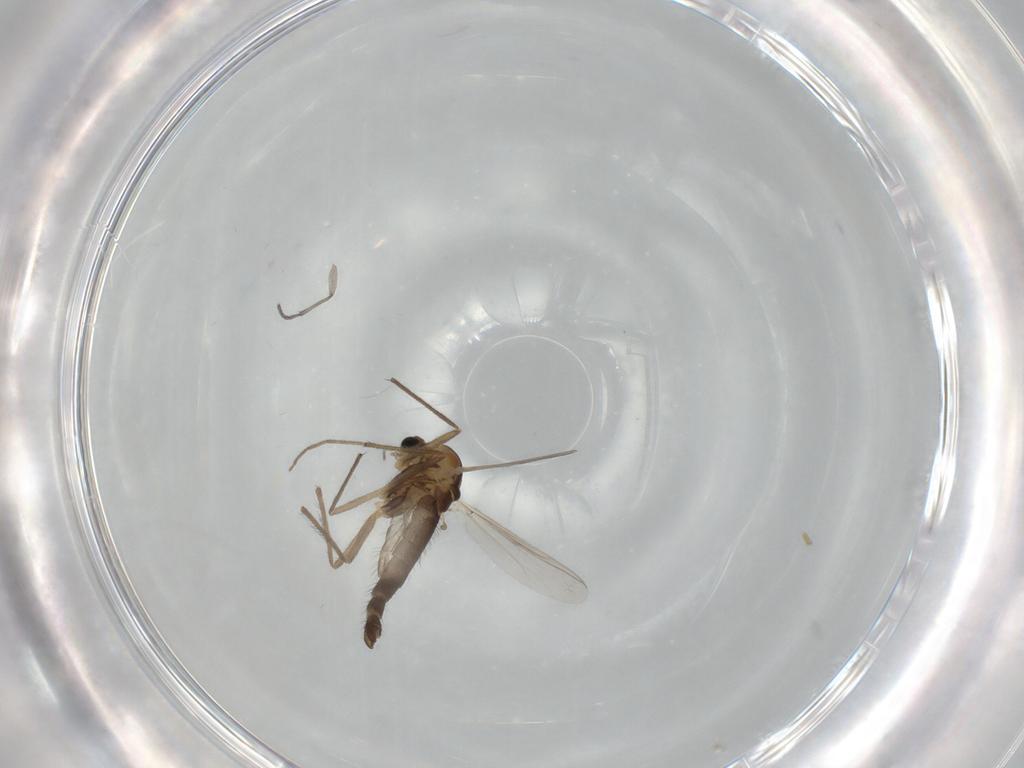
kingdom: Animalia
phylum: Arthropoda
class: Insecta
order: Diptera
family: Chironomidae
